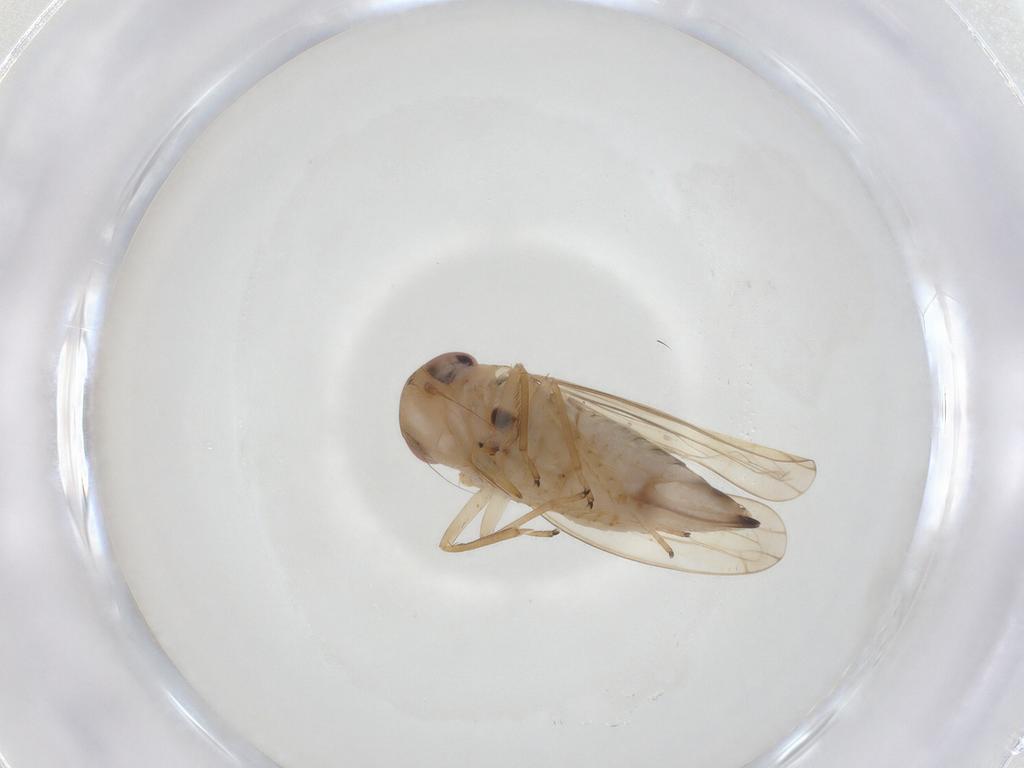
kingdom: Animalia
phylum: Arthropoda
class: Insecta
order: Hemiptera
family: Cicadellidae
